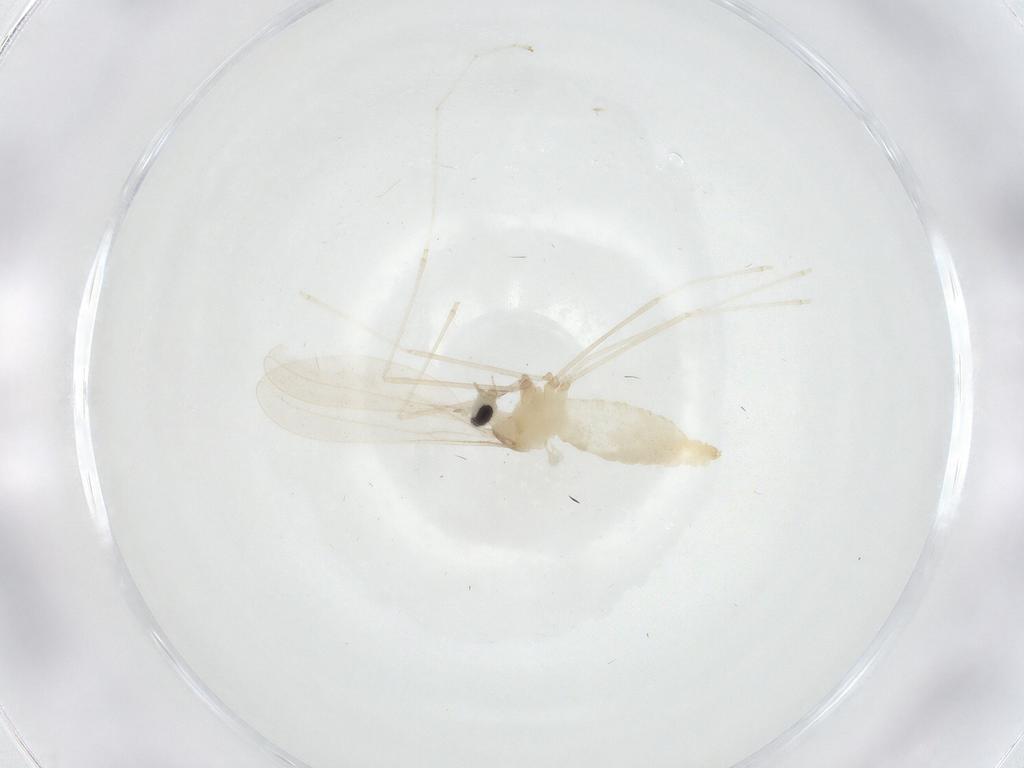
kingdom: Animalia
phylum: Arthropoda
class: Insecta
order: Diptera
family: Cecidomyiidae
